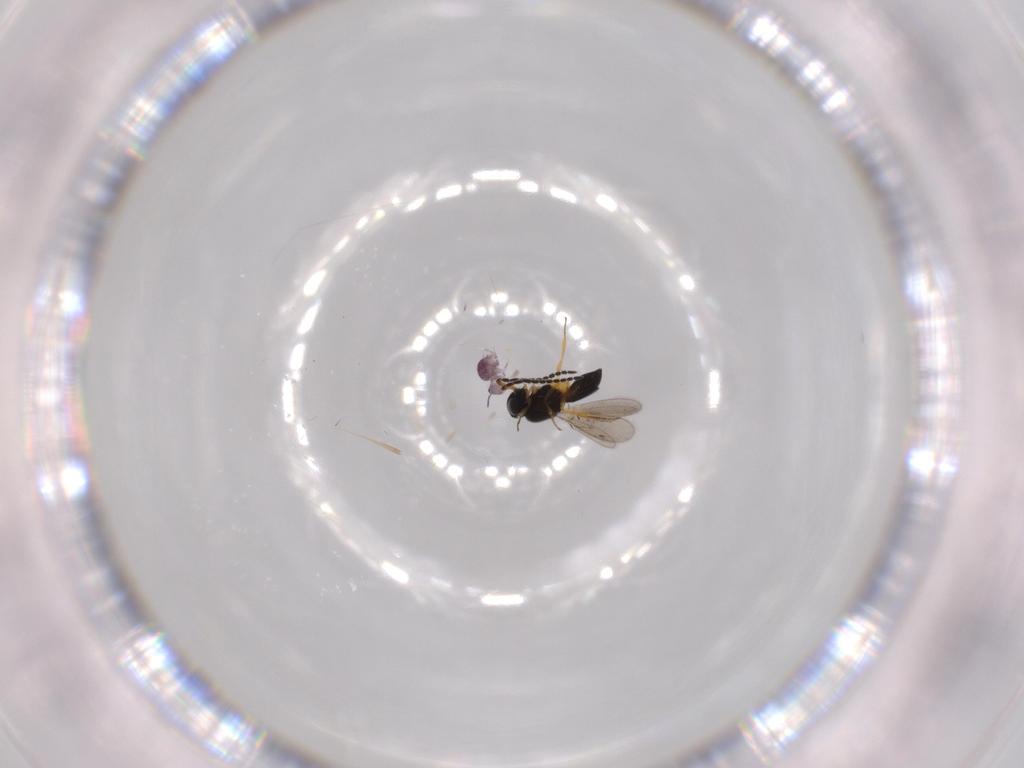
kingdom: Animalia
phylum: Arthropoda
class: Collembola
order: Symphypleona
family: Sminthurididae
